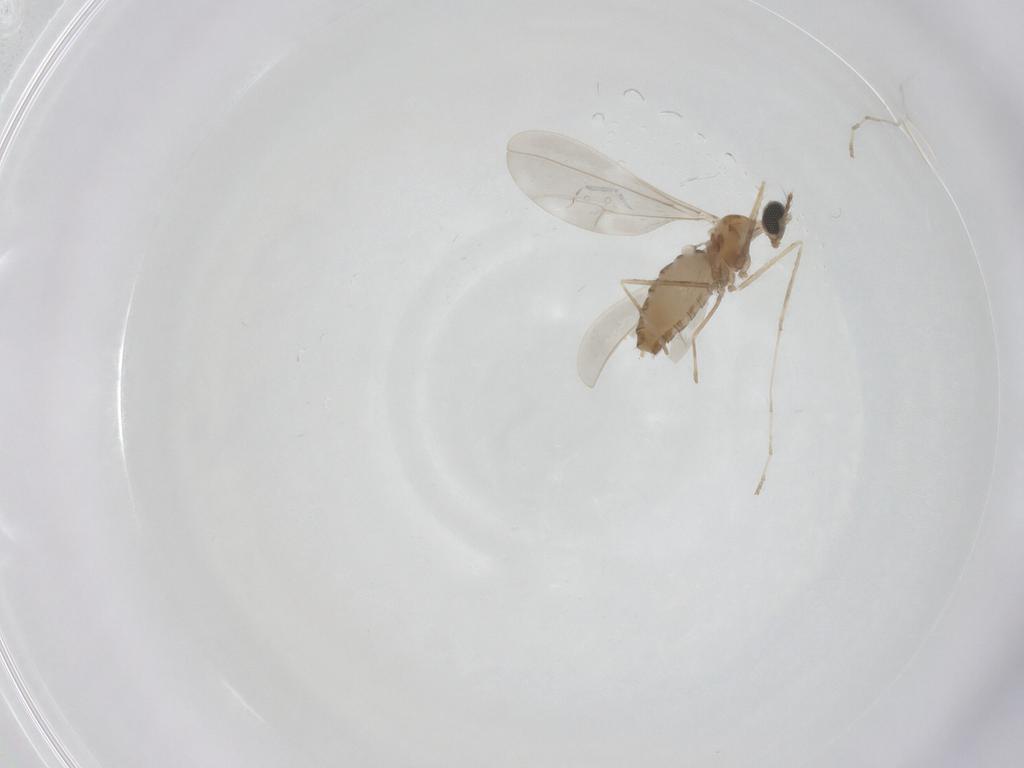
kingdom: Animalia
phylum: Arthropoda
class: Insecta
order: Diptera
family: Cecidomyiidae
